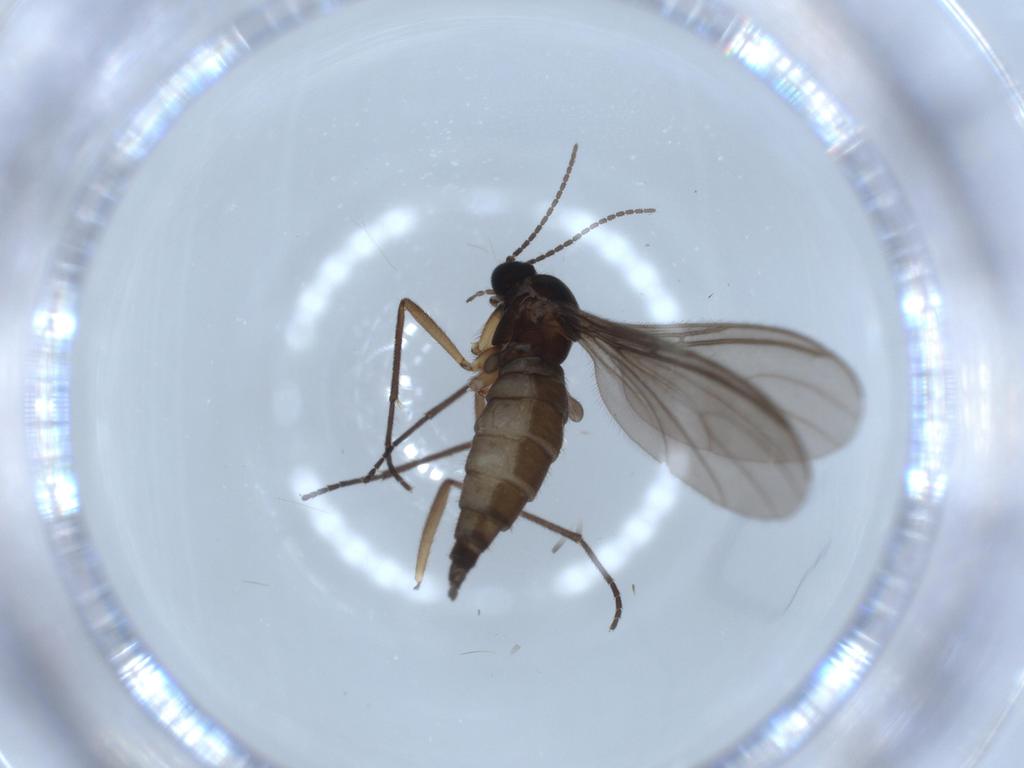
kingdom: Animalia
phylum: Arthropoda
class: Insecta
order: Diptera
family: Sciaridae
